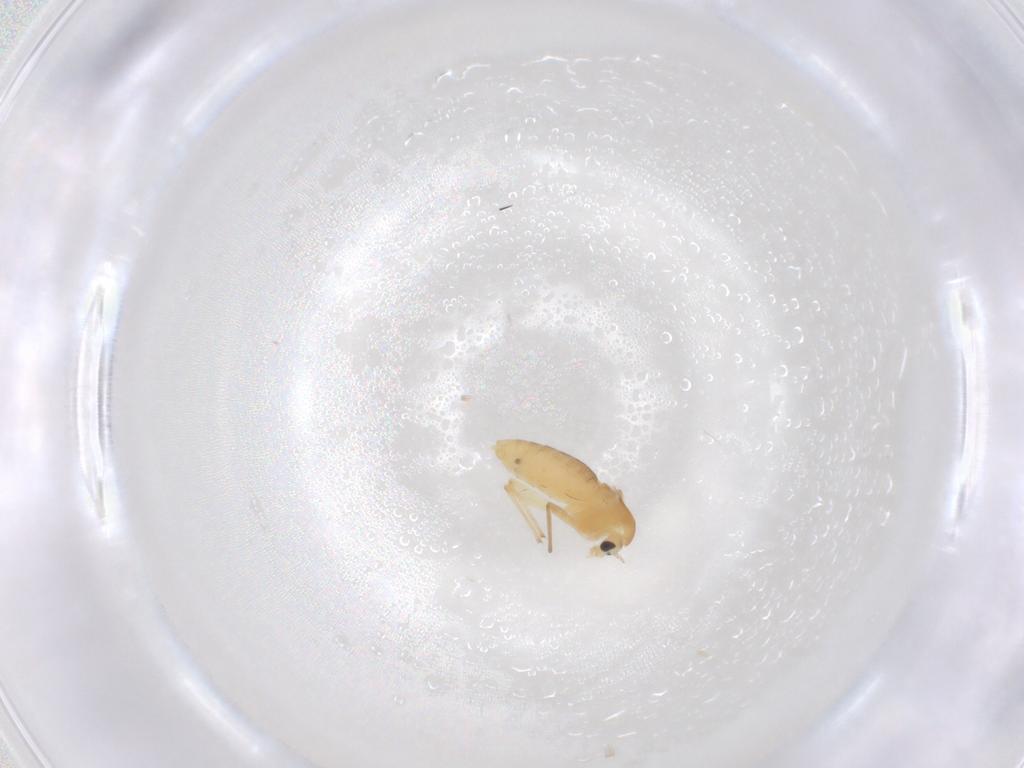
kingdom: Animalia
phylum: Arthropoda
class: Insecta
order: Diptera
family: Chironomidae
